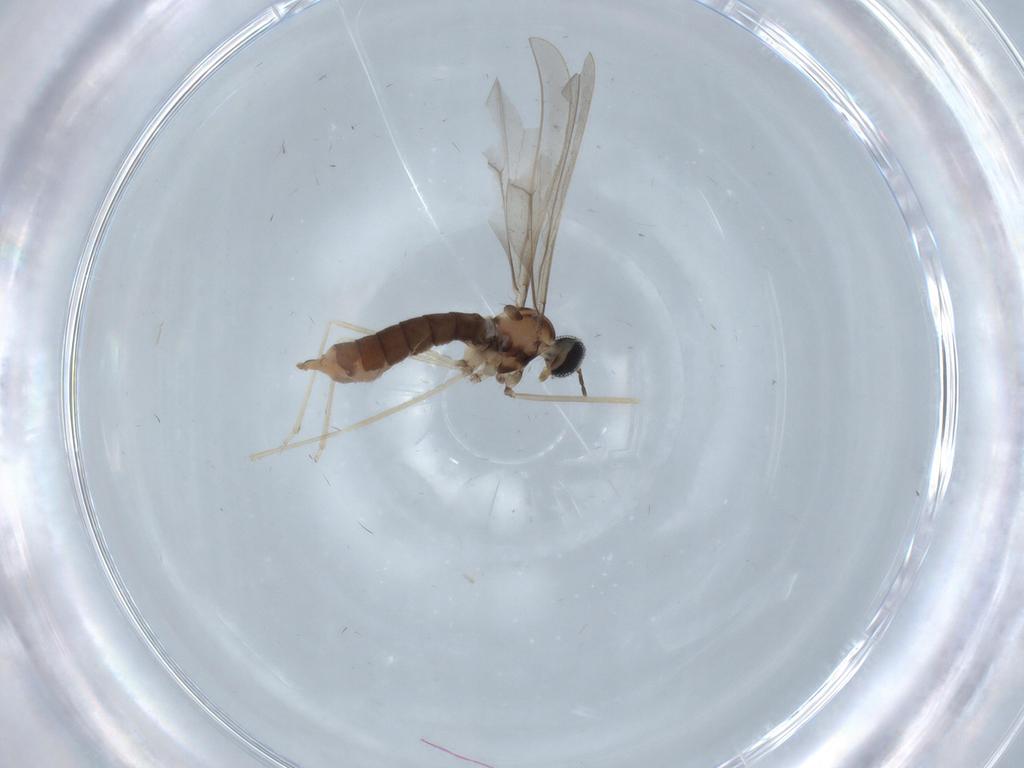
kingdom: Animalia
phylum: Arthropoda
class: Insecta
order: Diptera
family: Cecidomyiidae
